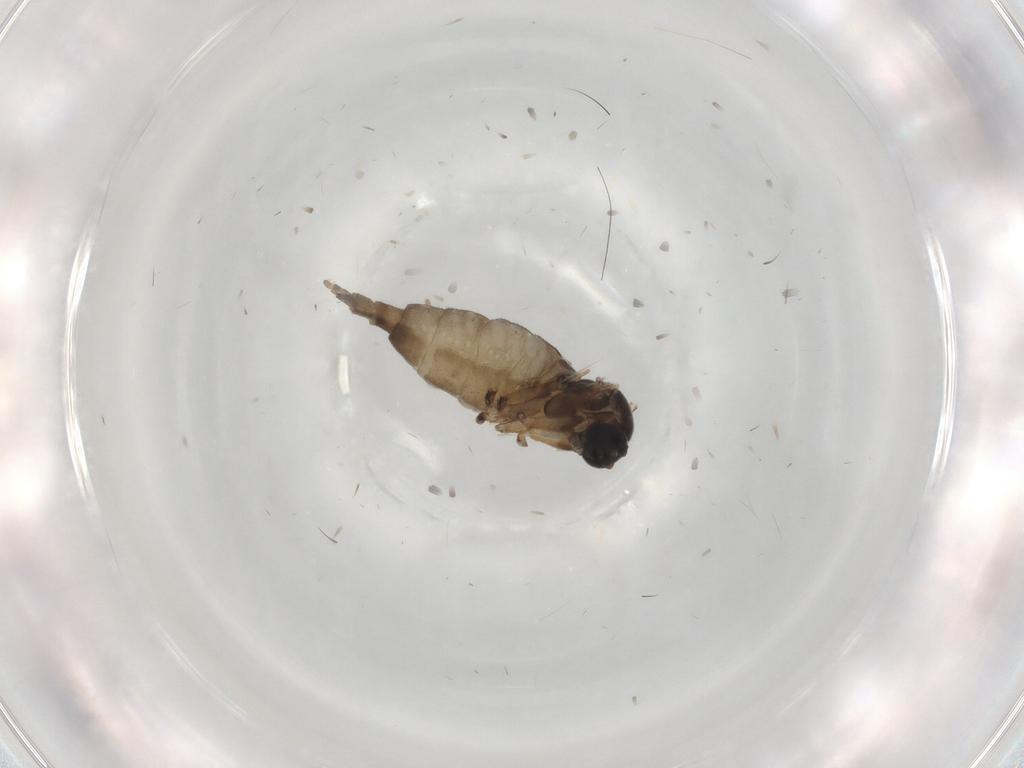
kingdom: Animalia
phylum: Arthropoda
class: Insecta
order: Diptera
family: Sciaridae
